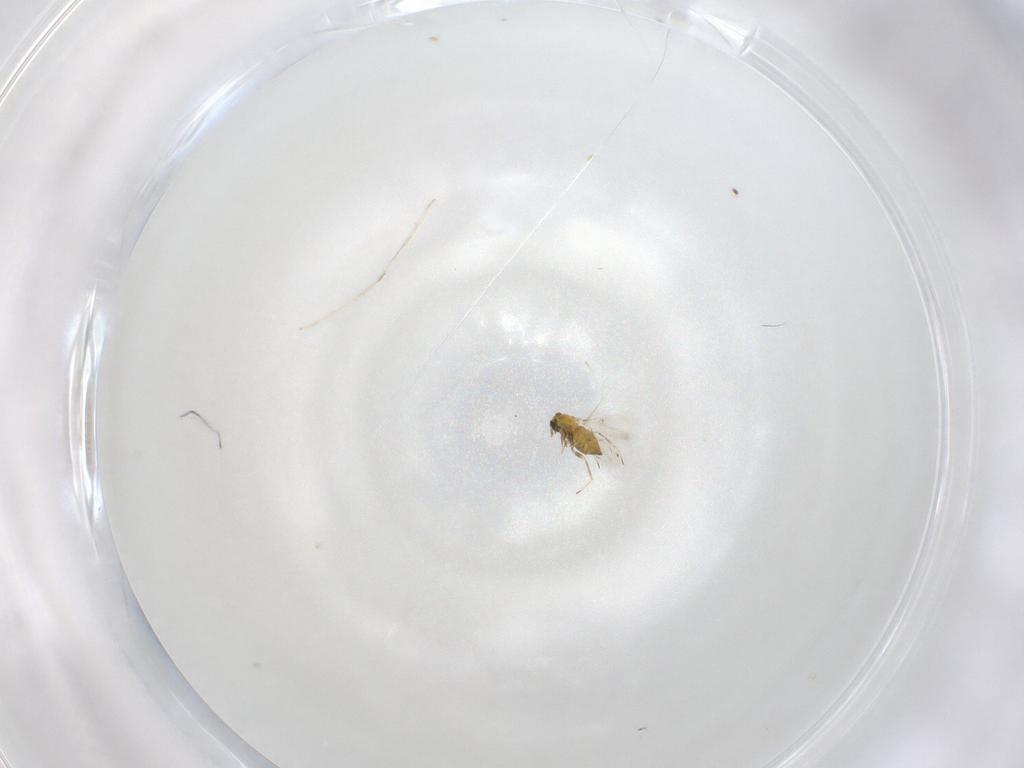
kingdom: Animalia
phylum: Arthropoda
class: Insecta
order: Hymenoptera
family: Trichogrammatidae
